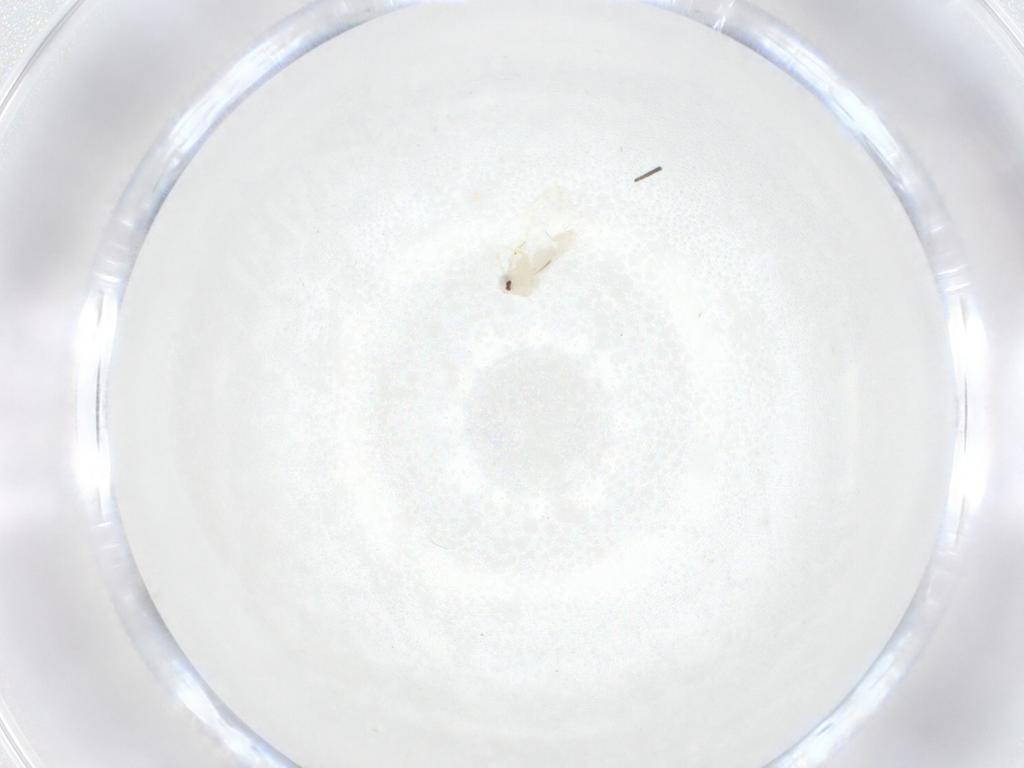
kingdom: Animalia
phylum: Arthropoda
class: Insecta
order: Hemiptera
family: Aleyrodidae
